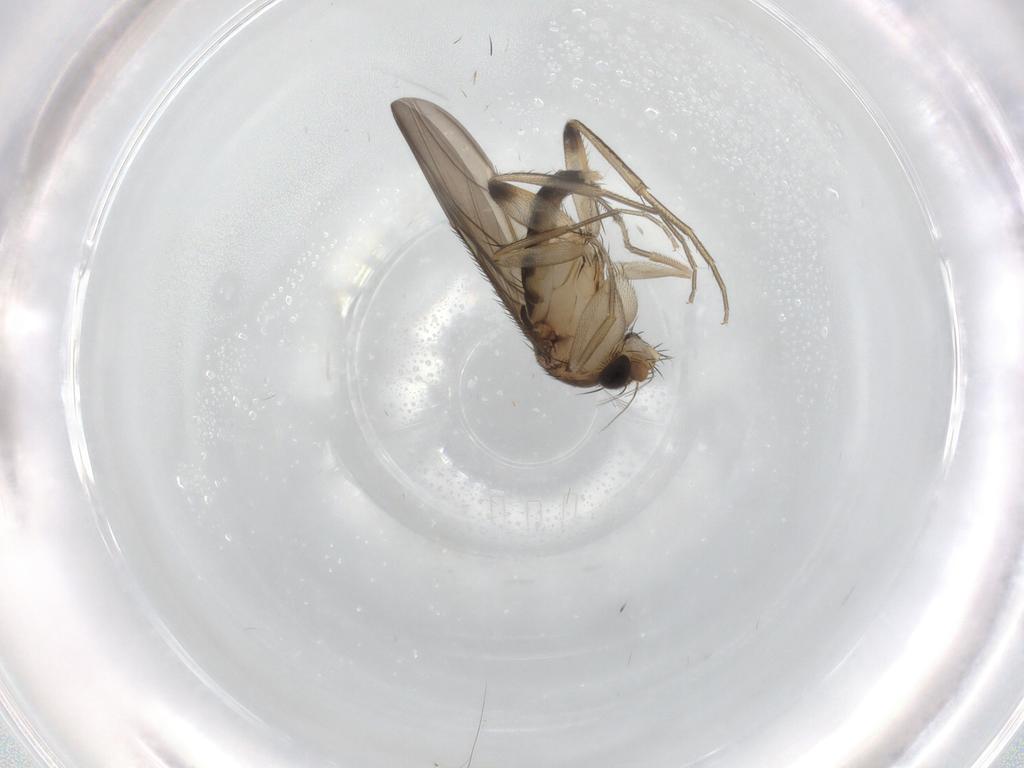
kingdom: Animalia
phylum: Arthropoda
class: Insecta
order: Diptera
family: Phoridae
